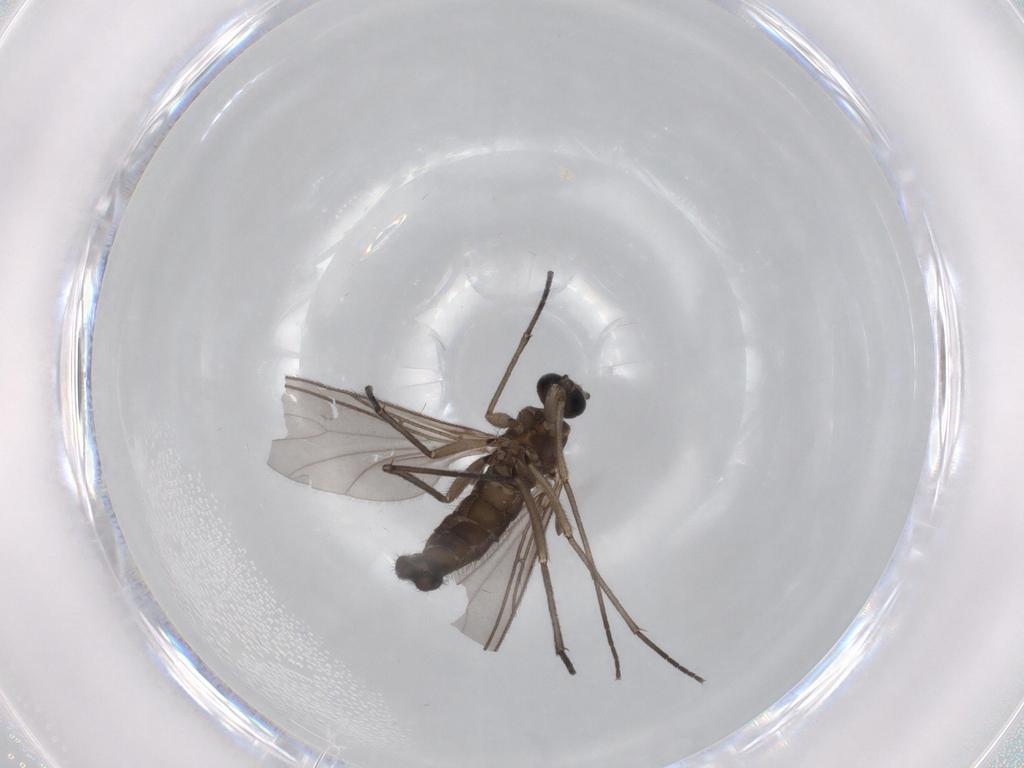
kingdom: Animalia
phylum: Arthropoda
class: Insecta
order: Diptera
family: Sciaridae
